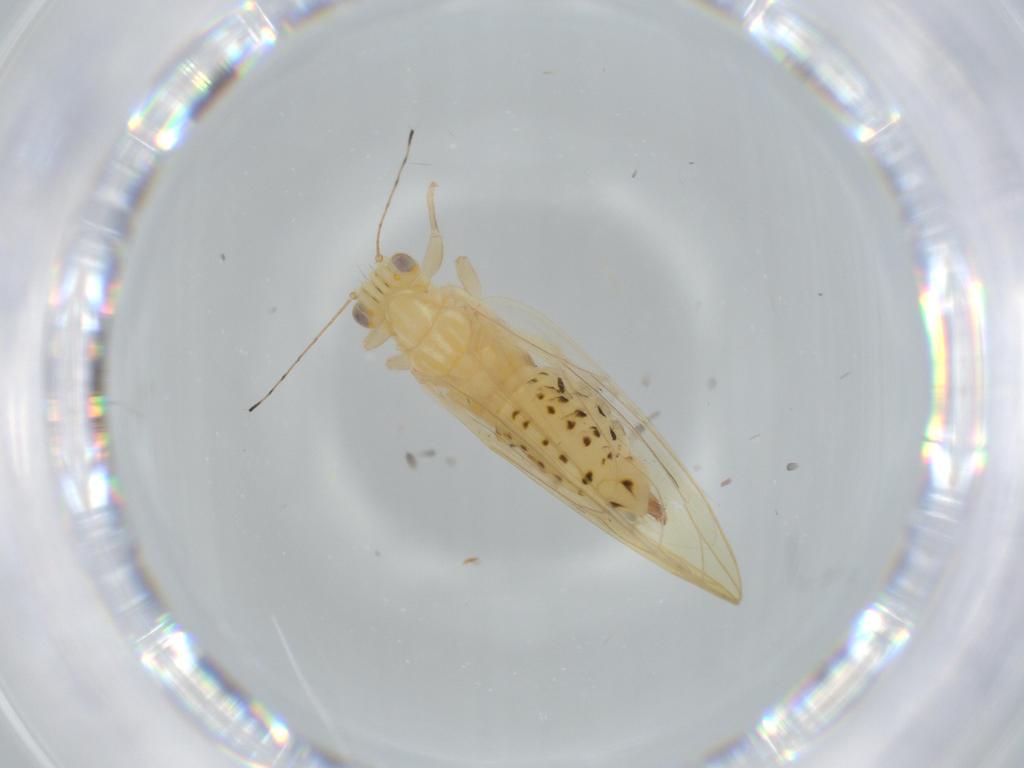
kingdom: Animalia
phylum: Arthropoda
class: Insecta
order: Hemiptera
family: Triozidae
